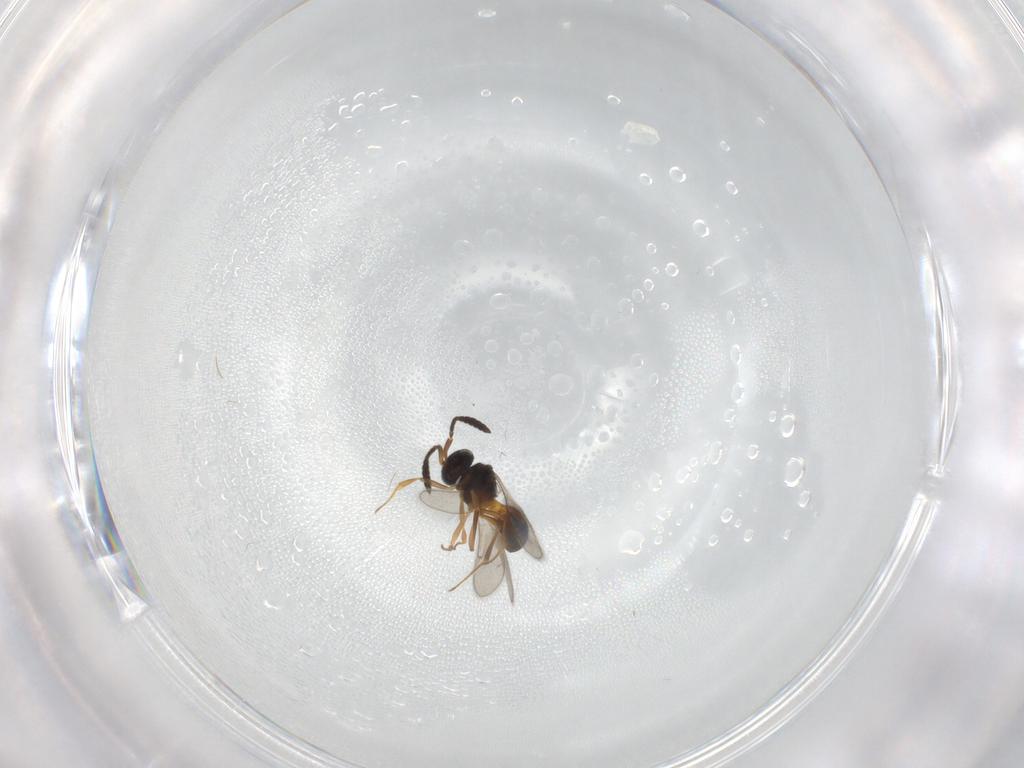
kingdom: Animalia
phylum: Arthropoda
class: Insecta
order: Hymenoptera
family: Scelionidae
